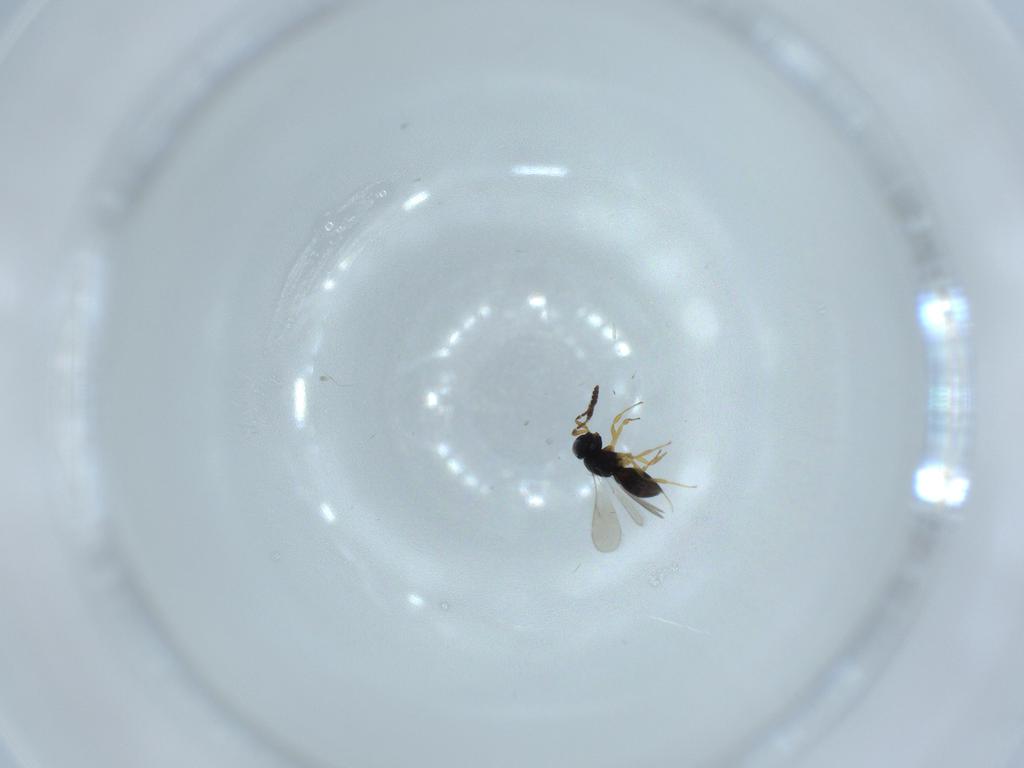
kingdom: Animalia
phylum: Arthropoda
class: Insecta
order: Hymenoptera
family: Scelionidae
